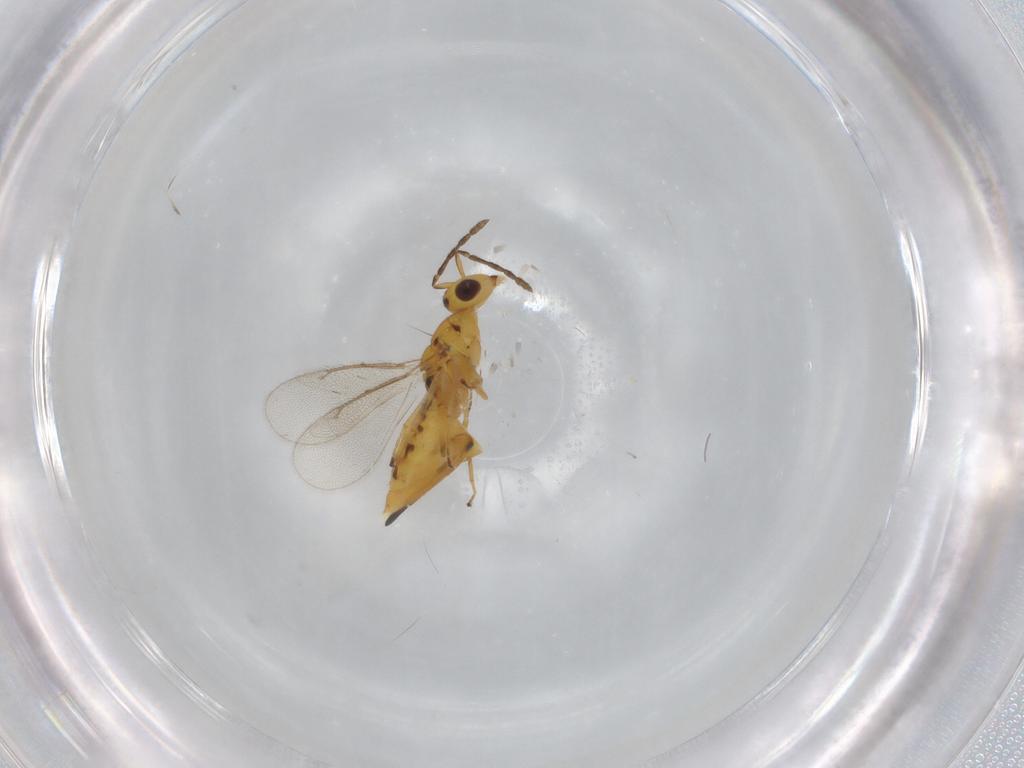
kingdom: Animalia
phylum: Arthropoda
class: Insecta
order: Hymenoptera
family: Eulophidae
